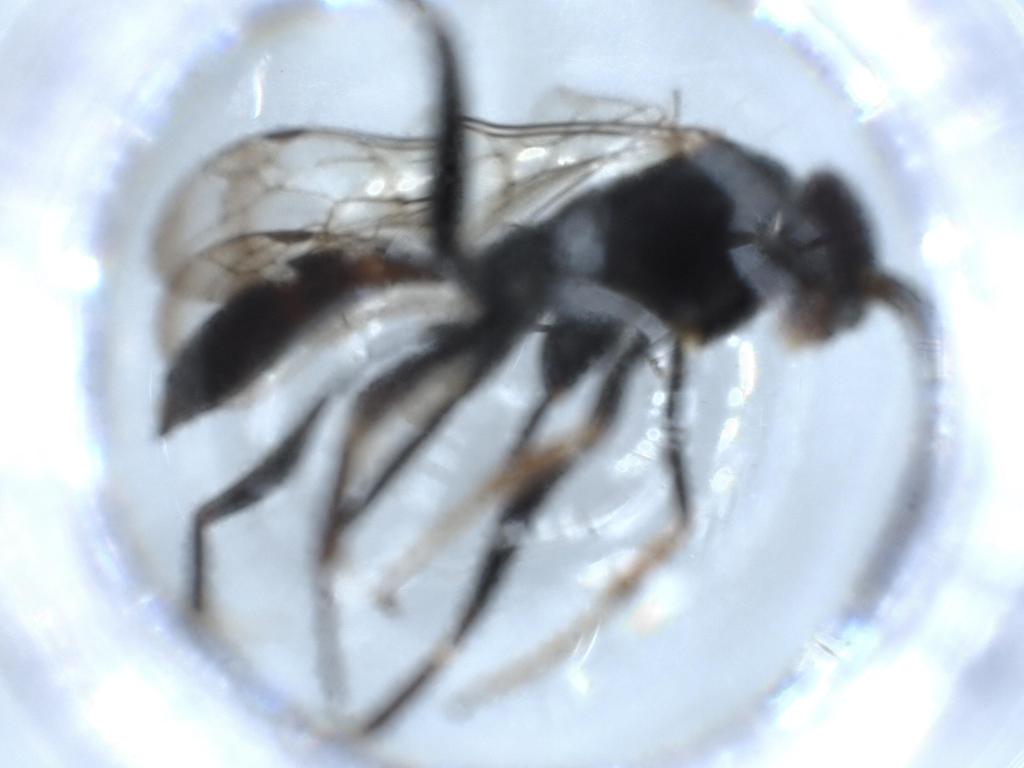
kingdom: Animalia
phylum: Arthropoda
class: Insecta
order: Hymenoptera
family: Pompilidae
